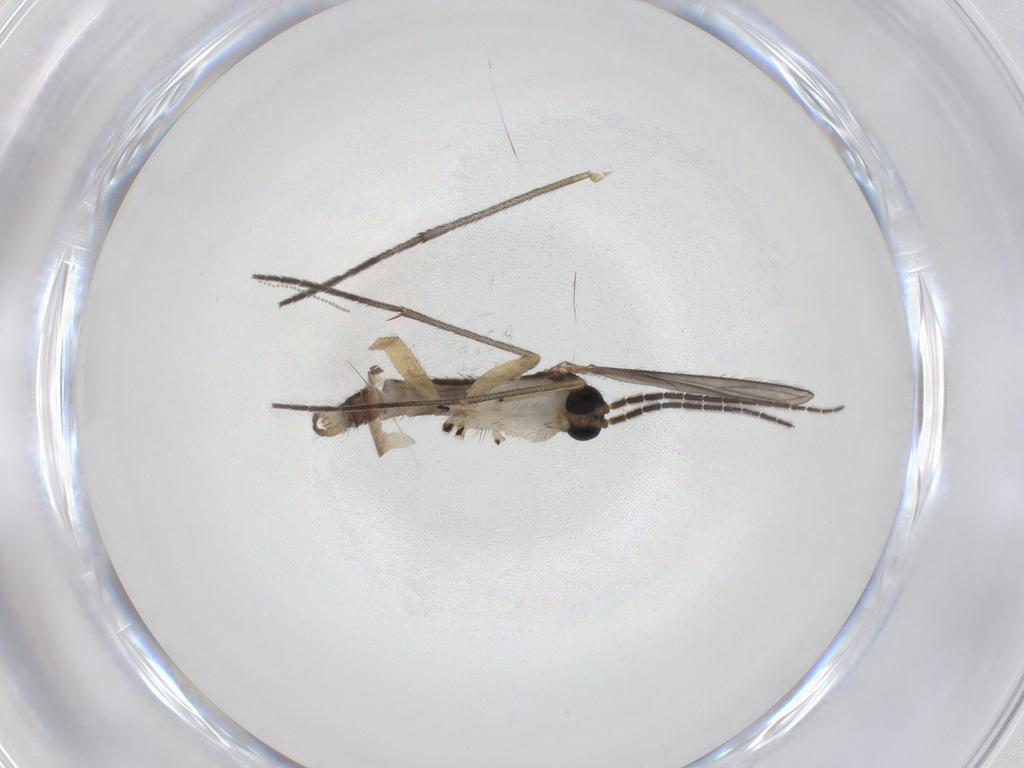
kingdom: Animalia
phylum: Arthropoda
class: Insecta
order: Diptera
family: Sciaridae
